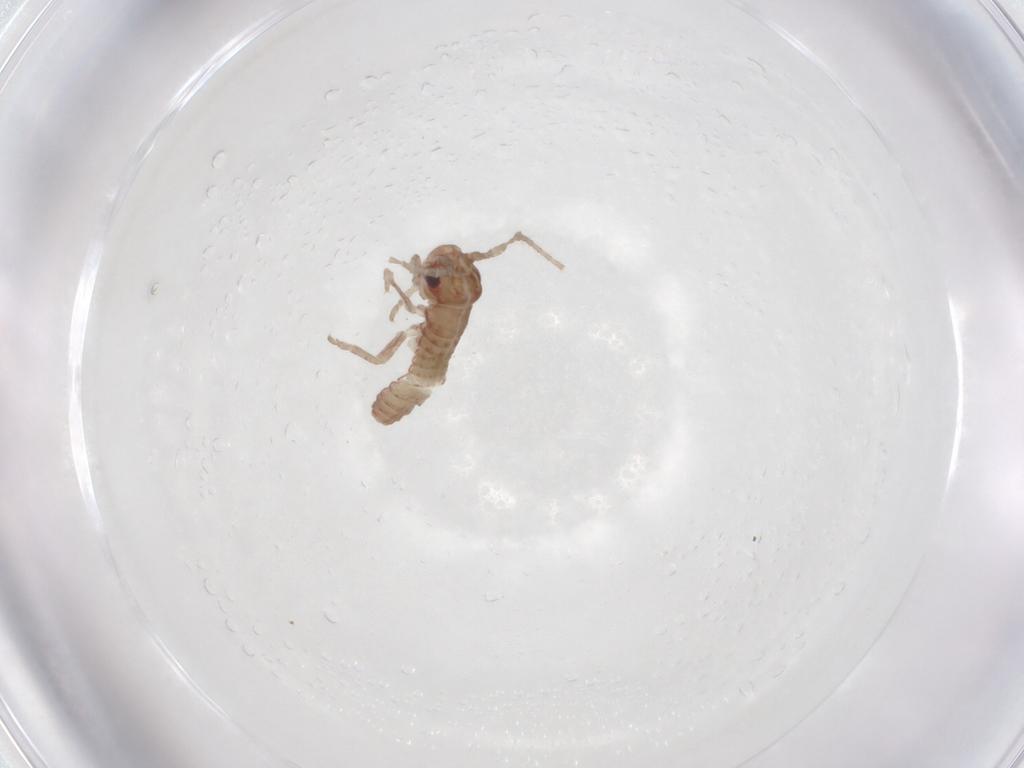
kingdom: Animalia
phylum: Arthropoda
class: Insecta
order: Orthoptera
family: Mogoplistidae
